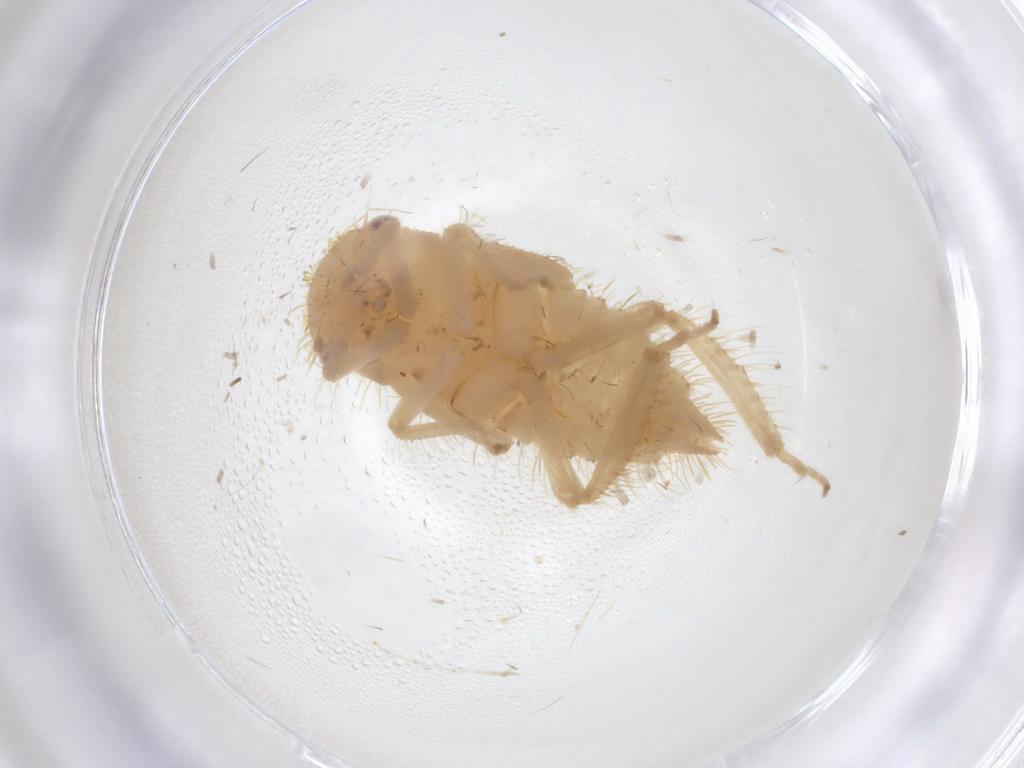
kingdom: Animalia
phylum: Arthropoda
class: Insecta
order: Hemiptera
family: Cicadellidae
